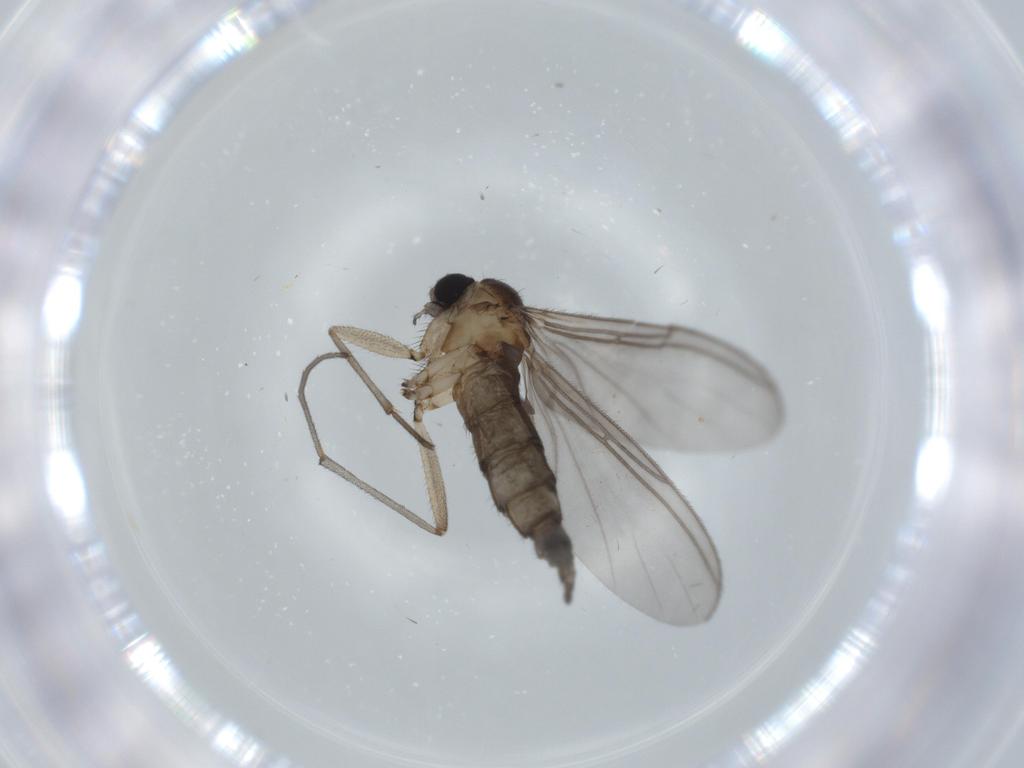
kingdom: Animalia
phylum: Arthropoda
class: Insecta
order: Diptera
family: Sciaridae
